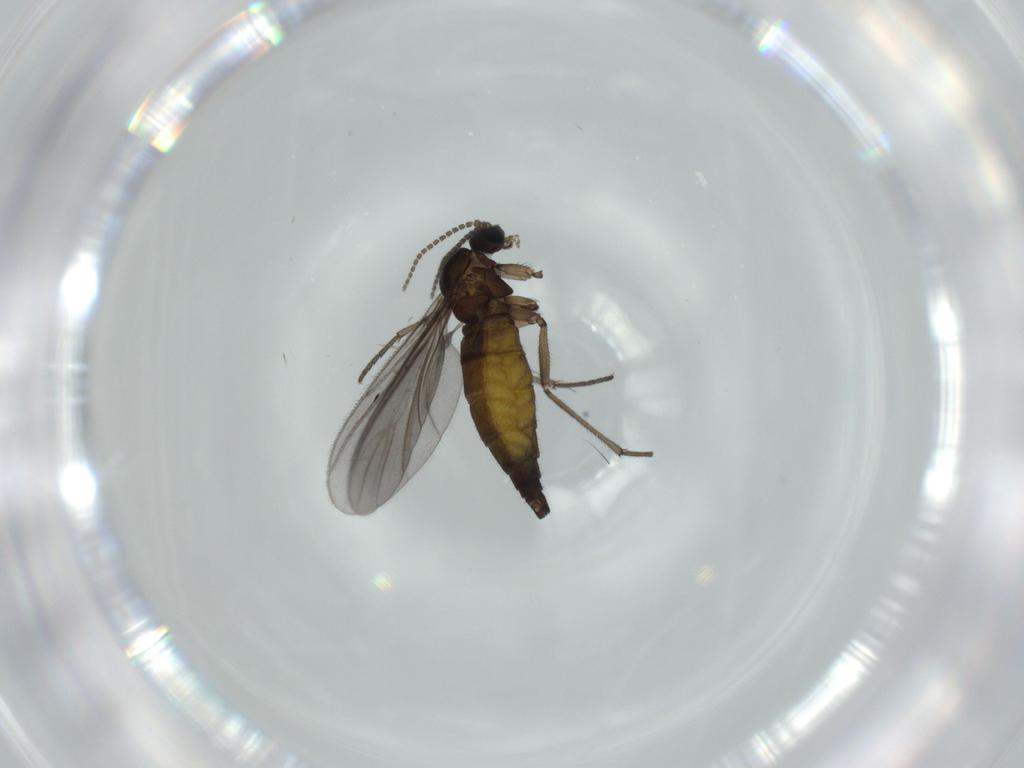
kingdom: Animalia
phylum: Arthropoda
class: Insecta
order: Diptera
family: Sciaridae
